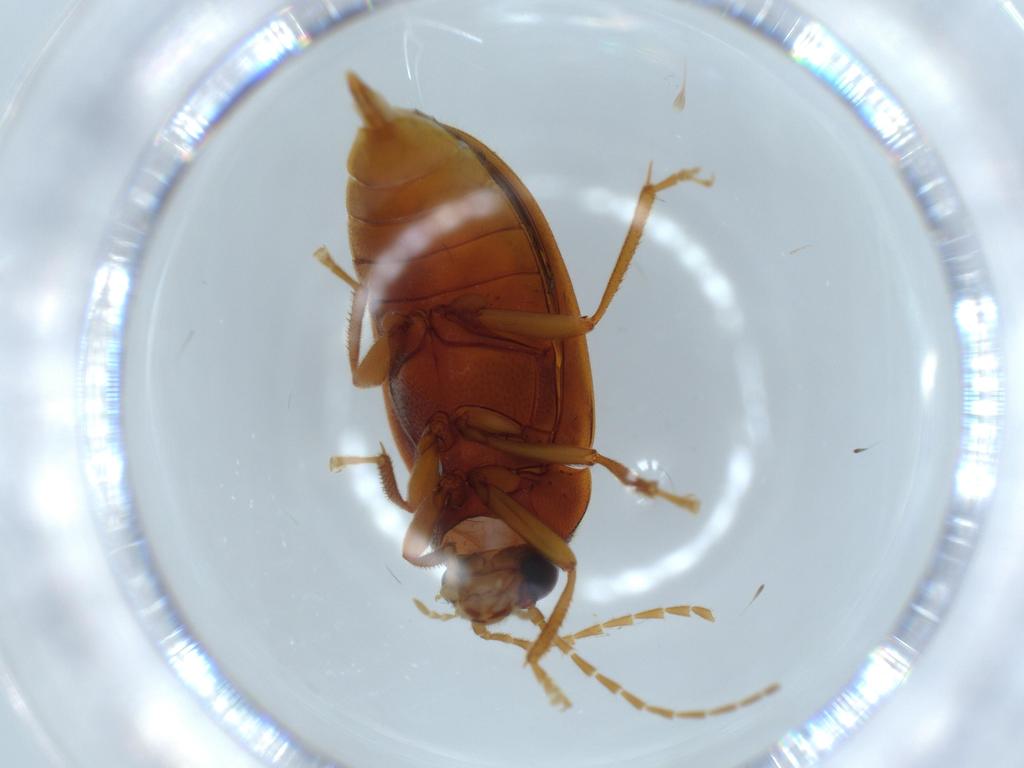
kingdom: Animalia
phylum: Arthropoda
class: Insecta
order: Coleoptera
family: Ptilodactylidae
